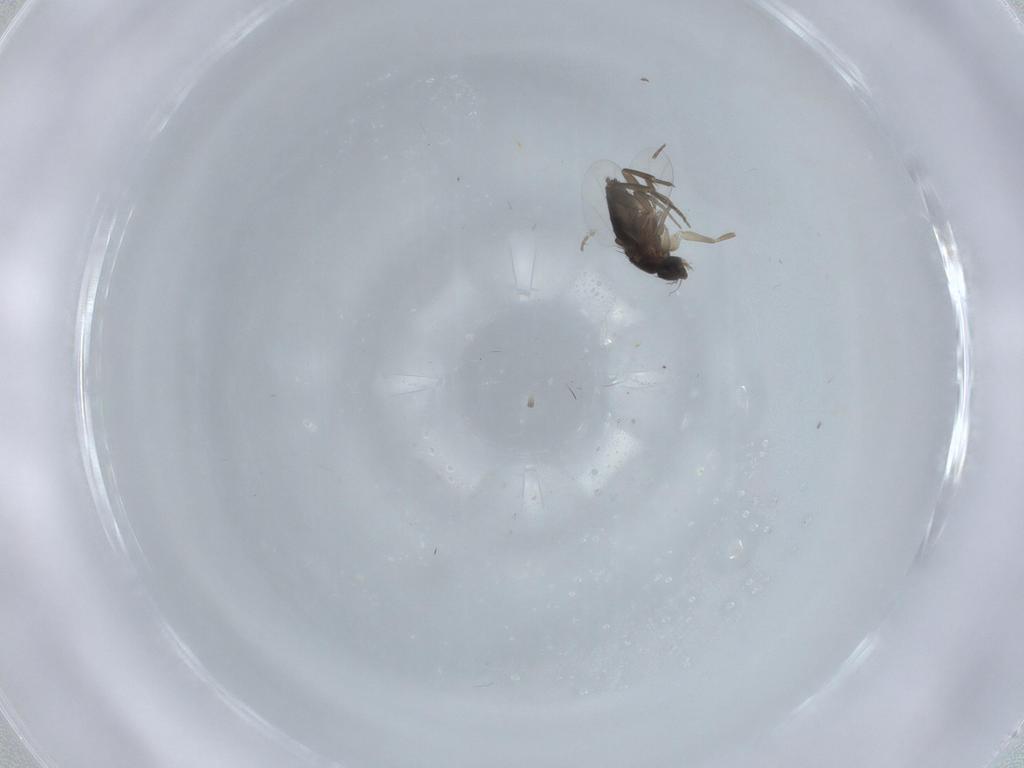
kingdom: Animalia
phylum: Arthropoda
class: Insecta
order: Diptera
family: Phoridae
